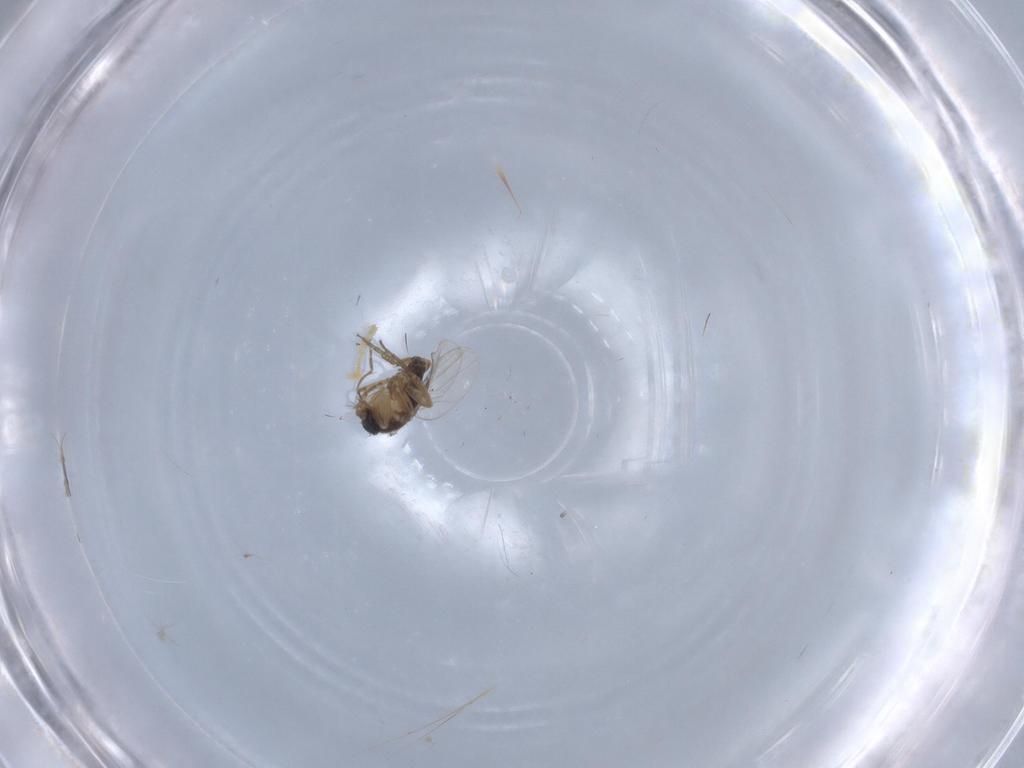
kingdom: Animalia
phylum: Arthropoda
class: Insecta
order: Diptera
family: Phoridae
